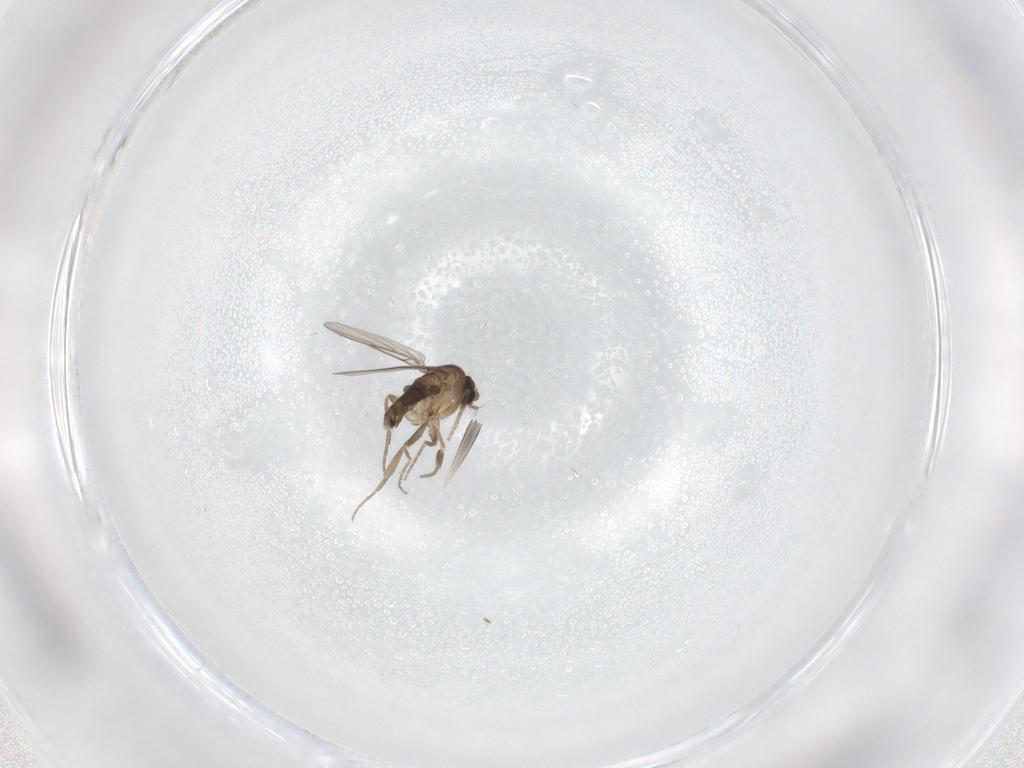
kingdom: Animalia
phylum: Arthropoda
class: Insecta
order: Diptera
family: Phoridae
